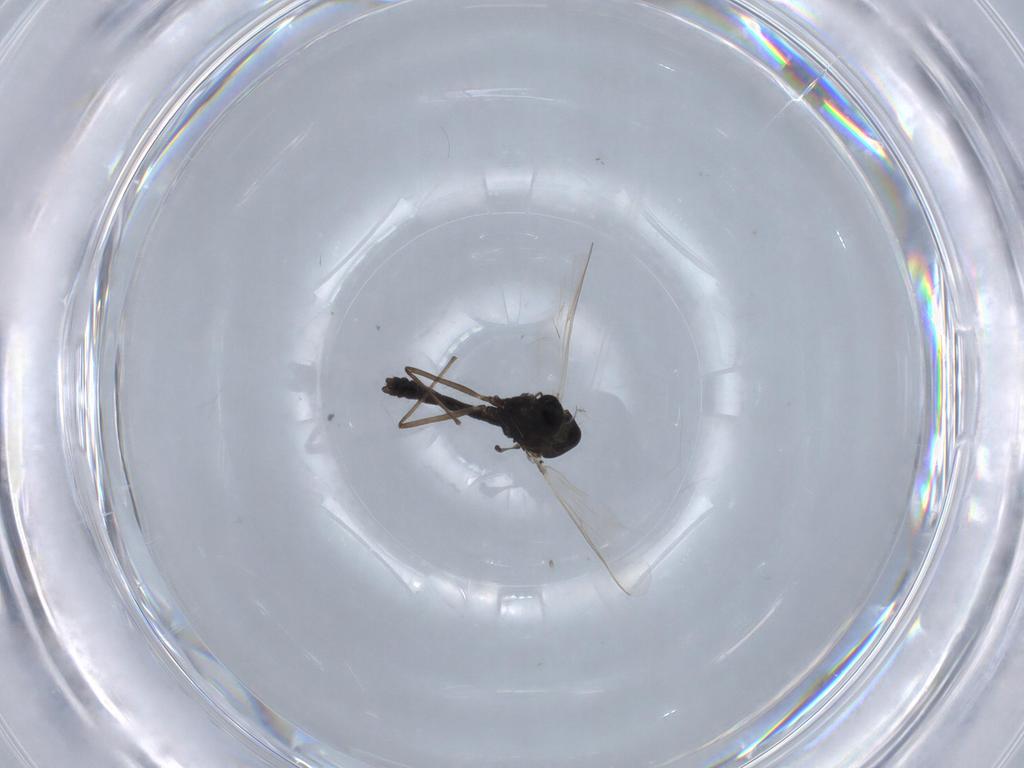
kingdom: Animalia
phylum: Arthropoda
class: Insecta
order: Diptera
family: Chironomidae
